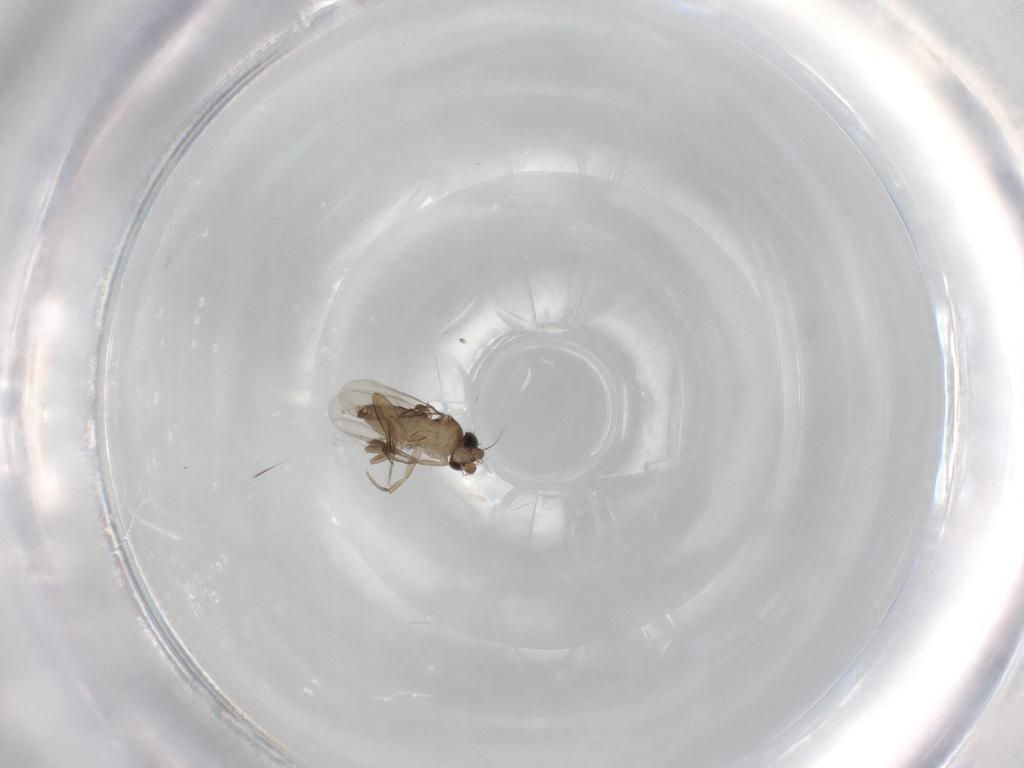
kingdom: Animalia
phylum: Arthropoda
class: Insecta
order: Diptera
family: Phoridae
